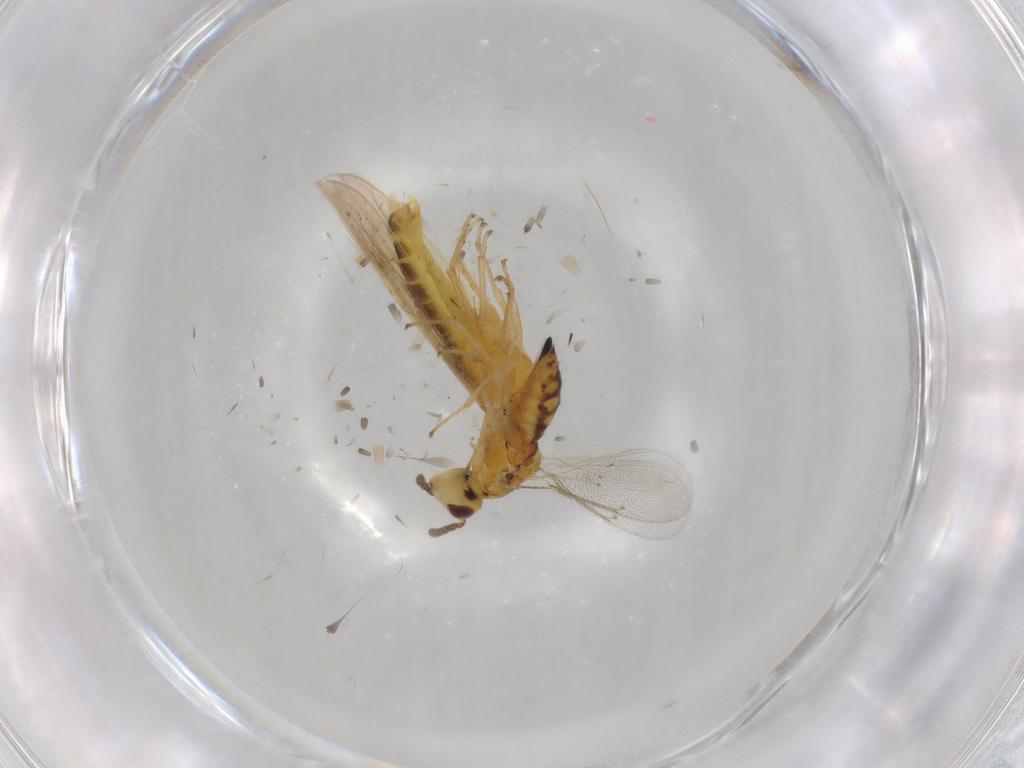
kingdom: Animalia
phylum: Arthropoda
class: Insecta
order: Hymenoptera
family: Eulophidae
